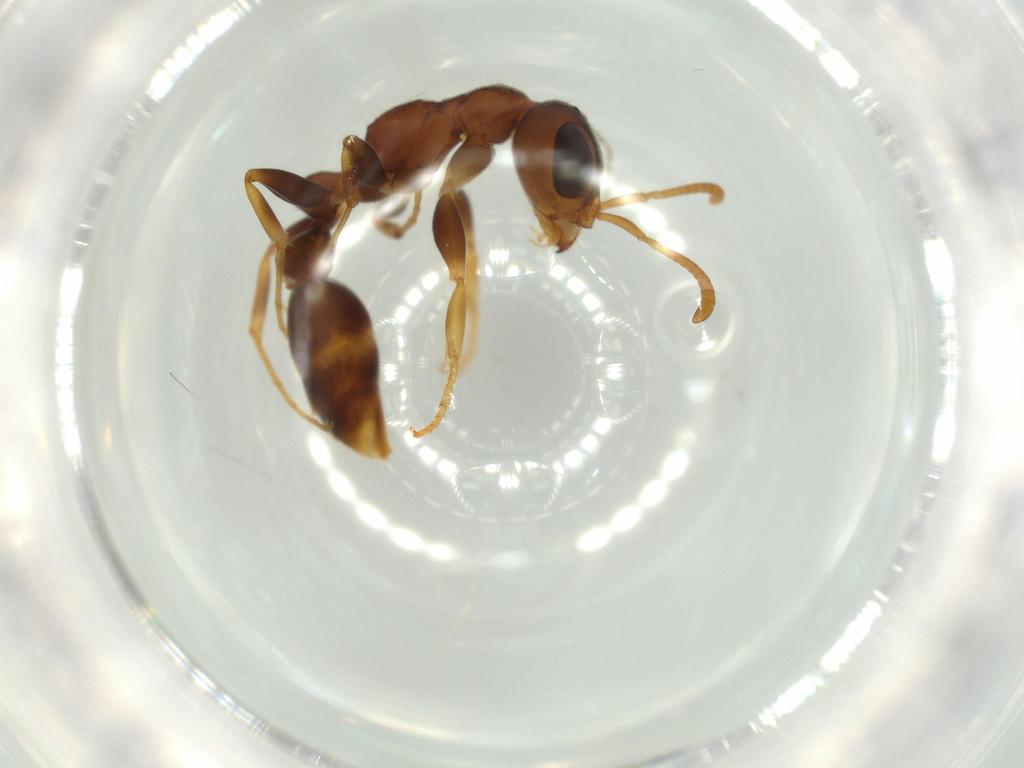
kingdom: Animalia
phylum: Arthropoda
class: Insecta
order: Hymenoptera
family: Formicidae
